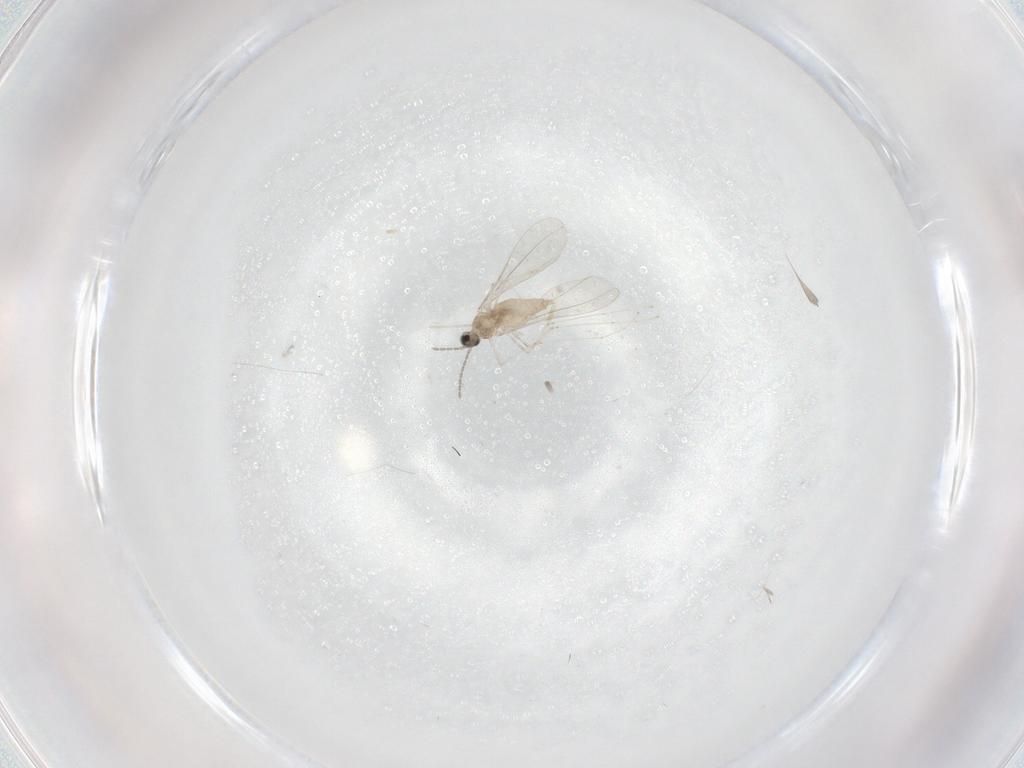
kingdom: Animalia
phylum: Arthropoda
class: Insecta
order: Diptera
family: Cecidomyiidae
